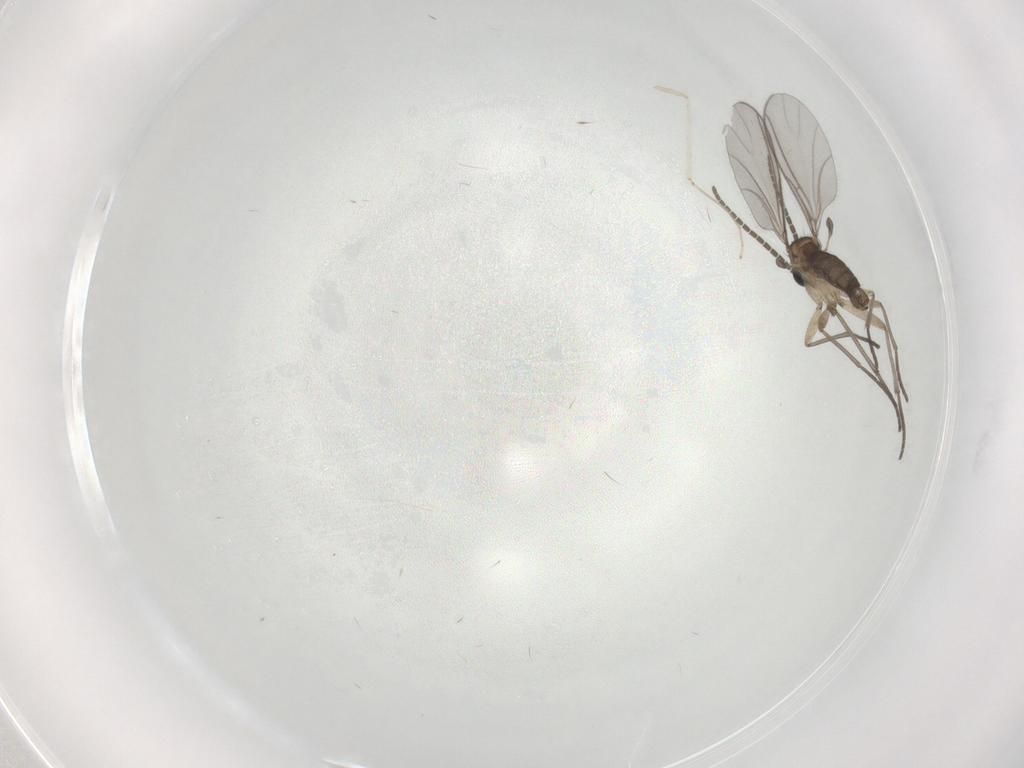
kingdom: Animalia
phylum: Arthropoda
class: Insecta
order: Diptera
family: Sciaridae
